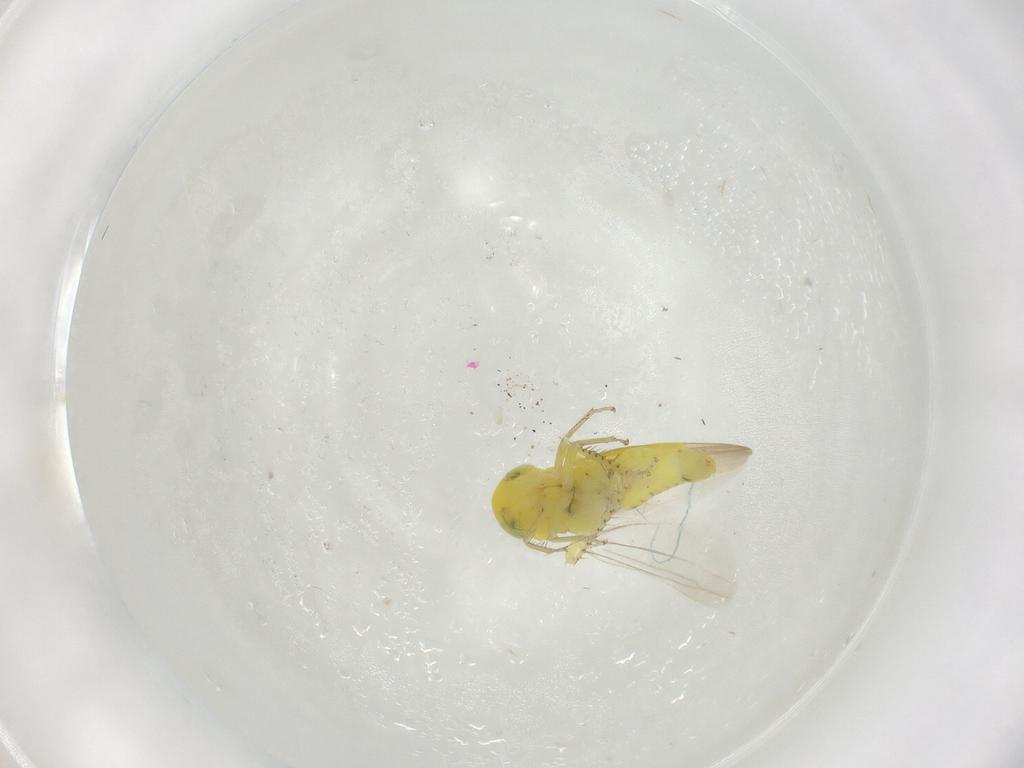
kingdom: Animalia
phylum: Arthropoda
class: Insecta
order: Hemiptera
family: Cicadellidae
